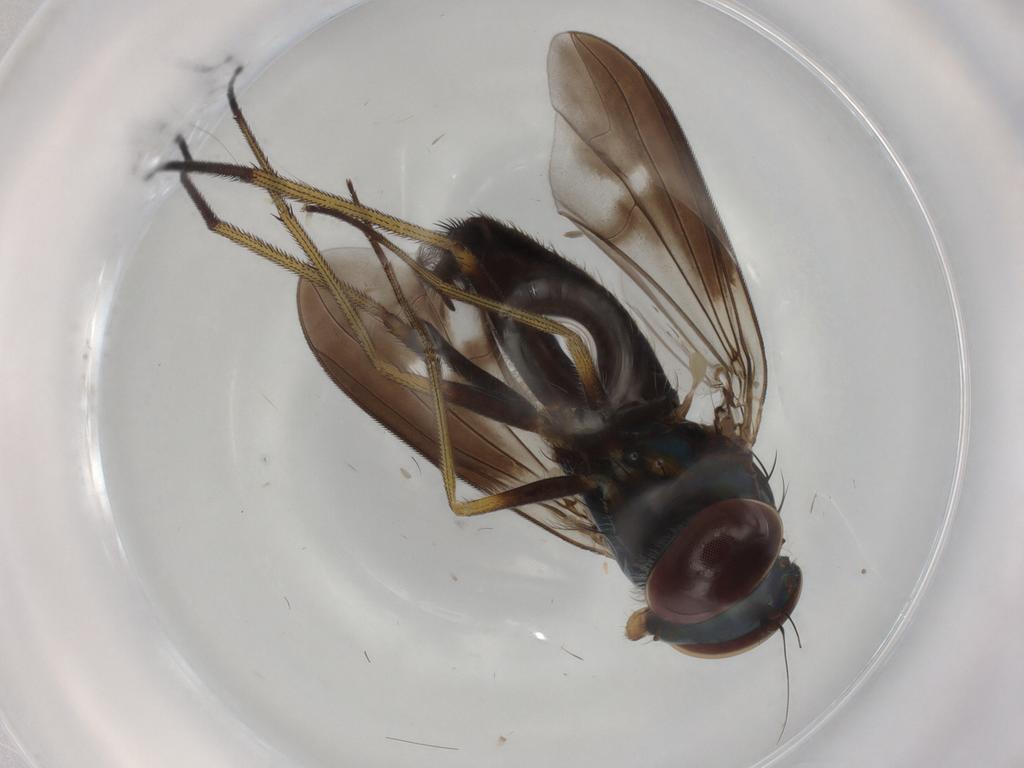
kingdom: Animalia
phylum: Arthropoda
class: Insecta
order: Diptera
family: Dolichopodidae
